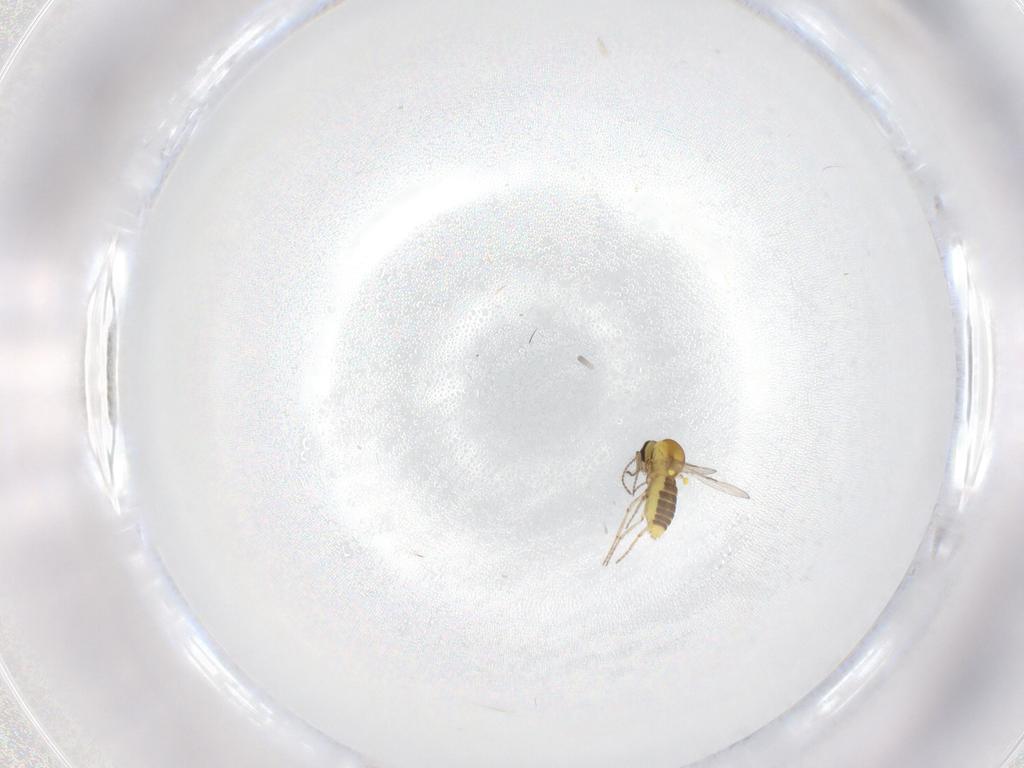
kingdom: Animalia
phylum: Arthropoda
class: Insecta
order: Diptera
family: Ceratopogonidae
